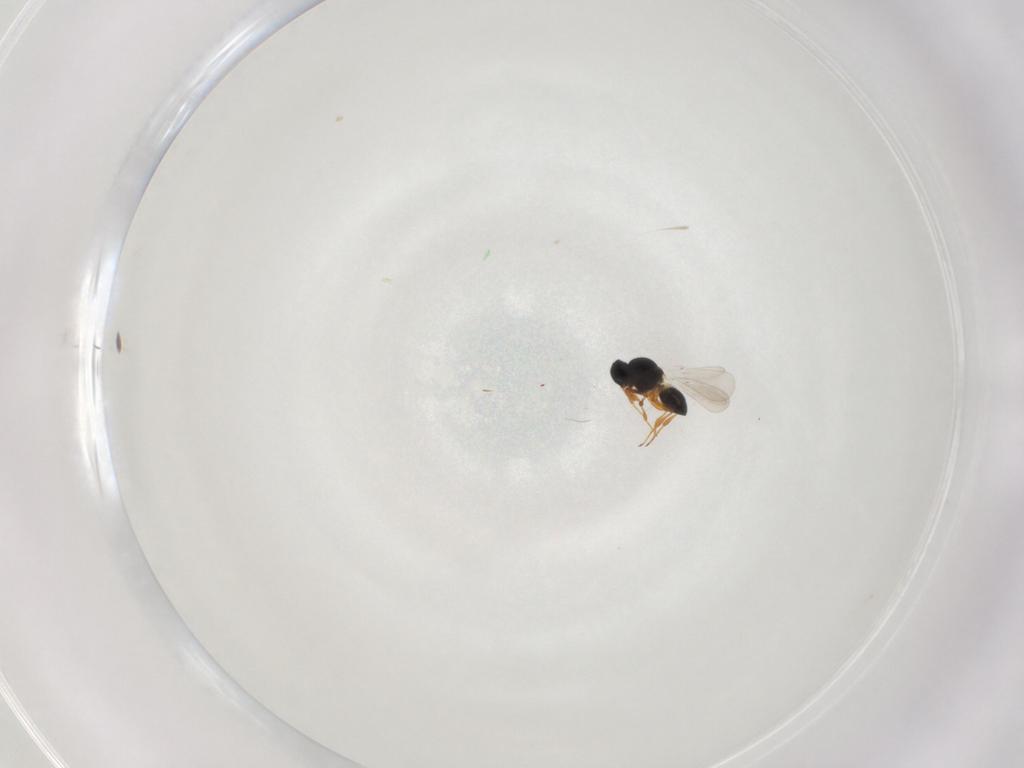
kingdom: Animalia
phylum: Arthropoda
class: Insecta
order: Hymenoptera
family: Platygastridae
